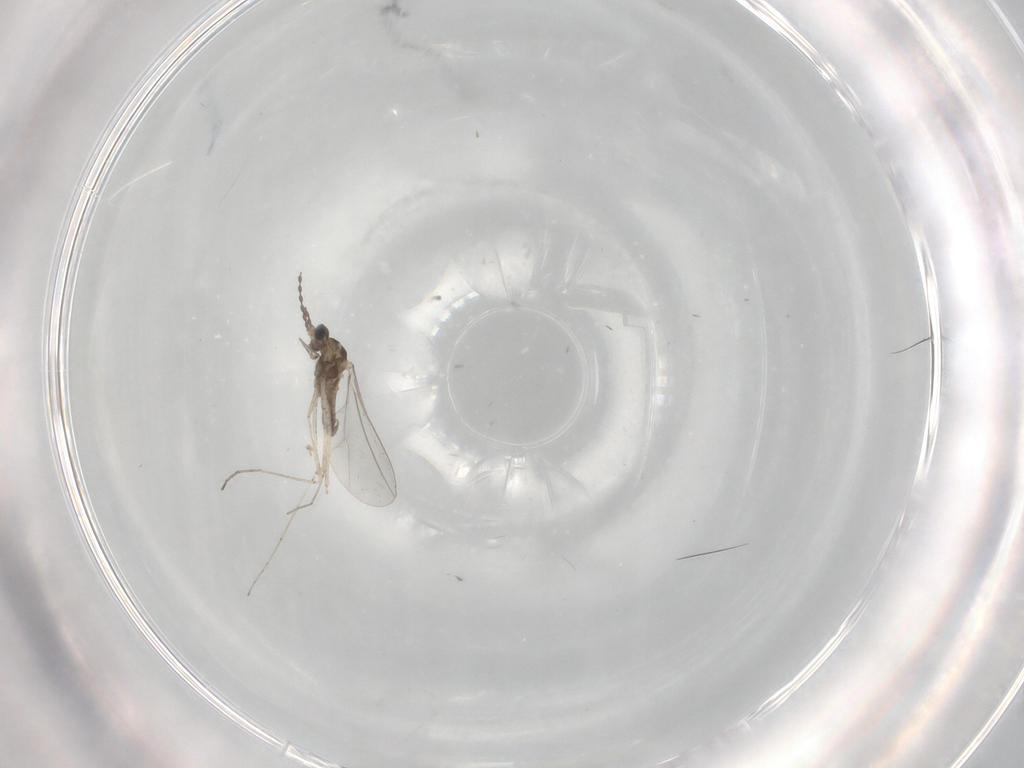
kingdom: Animalia
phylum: Arthropoda
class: Insecta
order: Diptera
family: Cecidomyiidae
